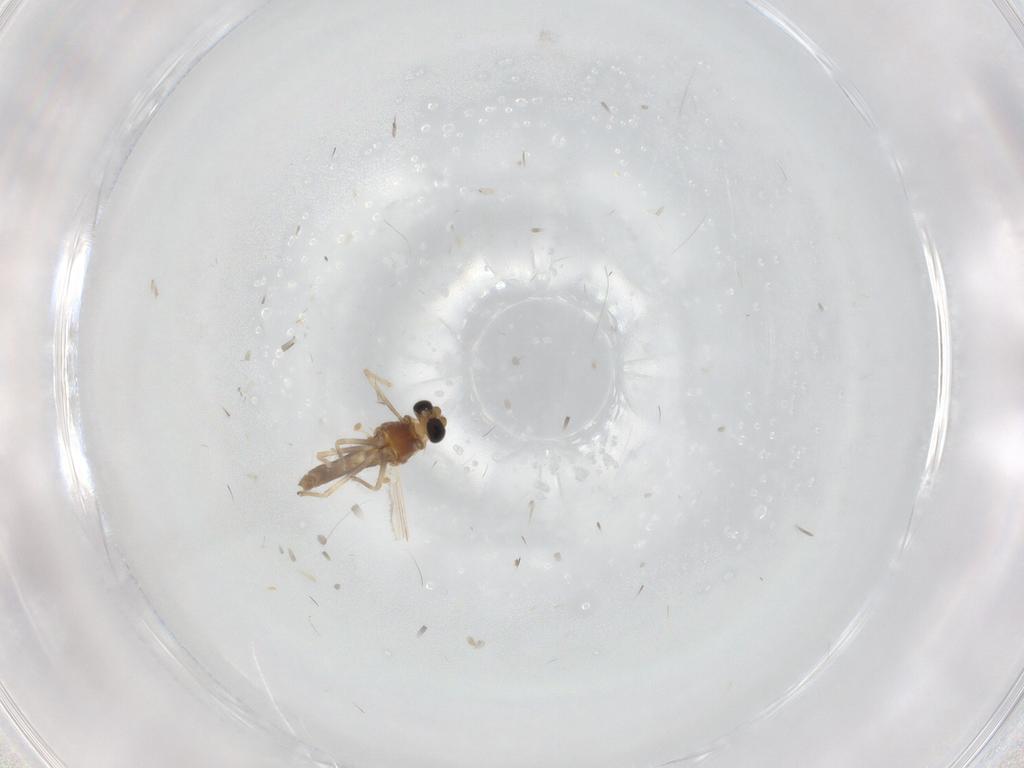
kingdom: Animalia
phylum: Arthropoda
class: Insecta
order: Diptera
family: Chironomidae
